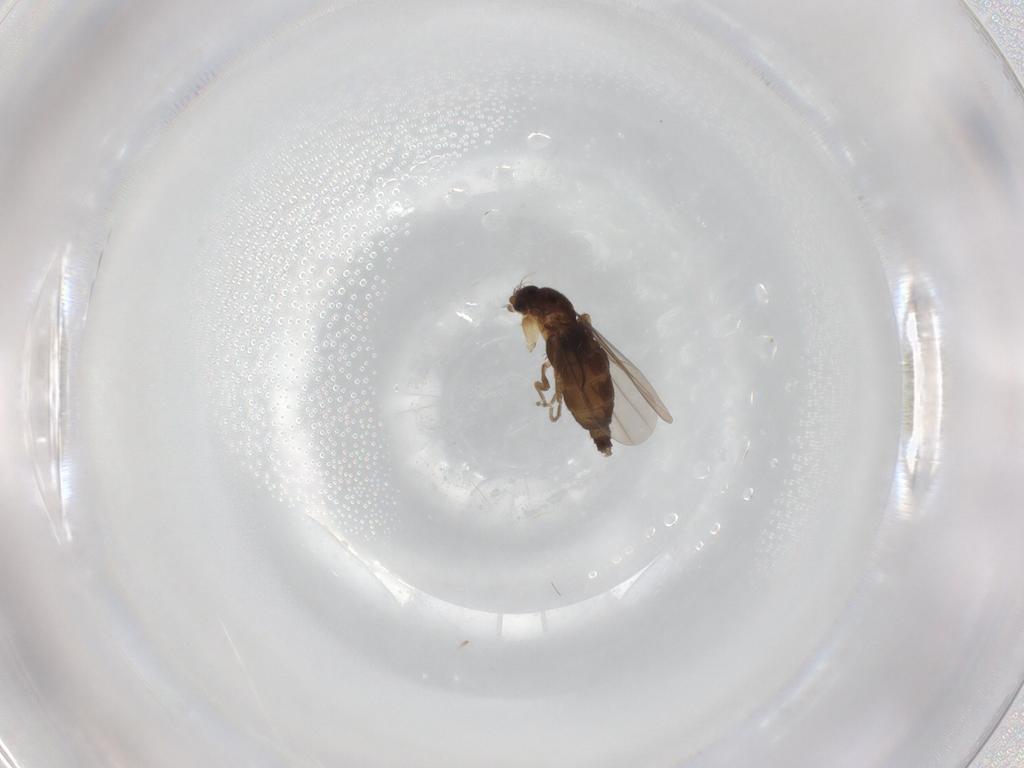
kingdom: Animalia
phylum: Arthropoda
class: Insecta
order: Diptera
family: Phoridae
